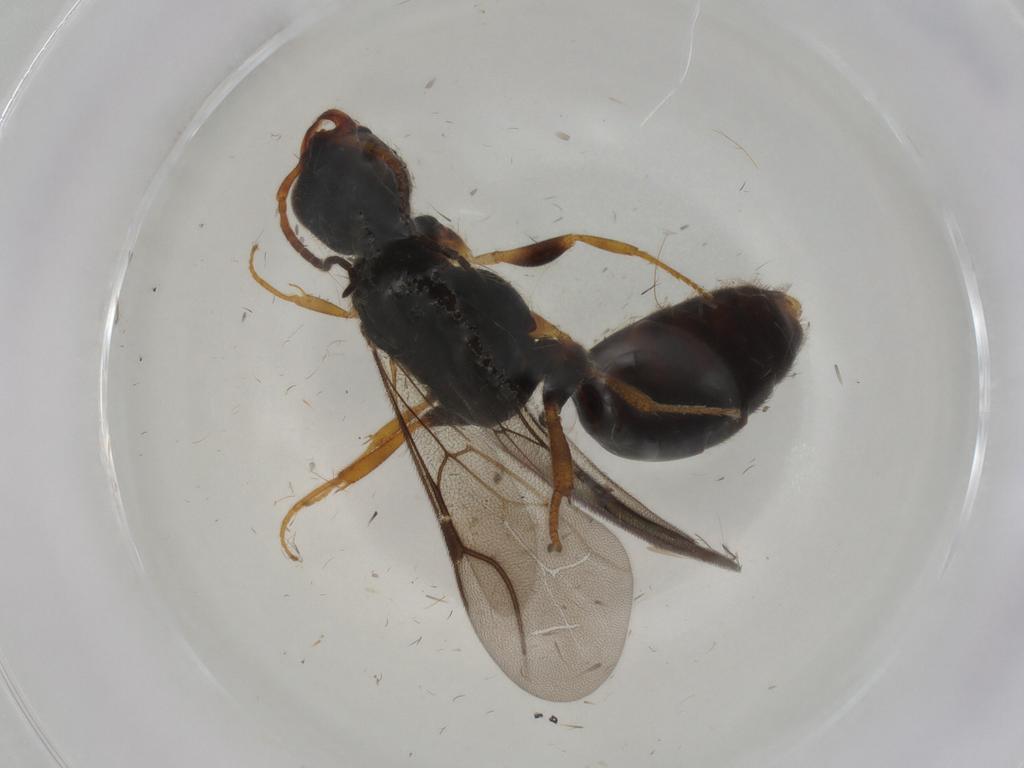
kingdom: Animalia
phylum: Arthropoda
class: Insecta
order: Hymenoptera
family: Bethylidae
